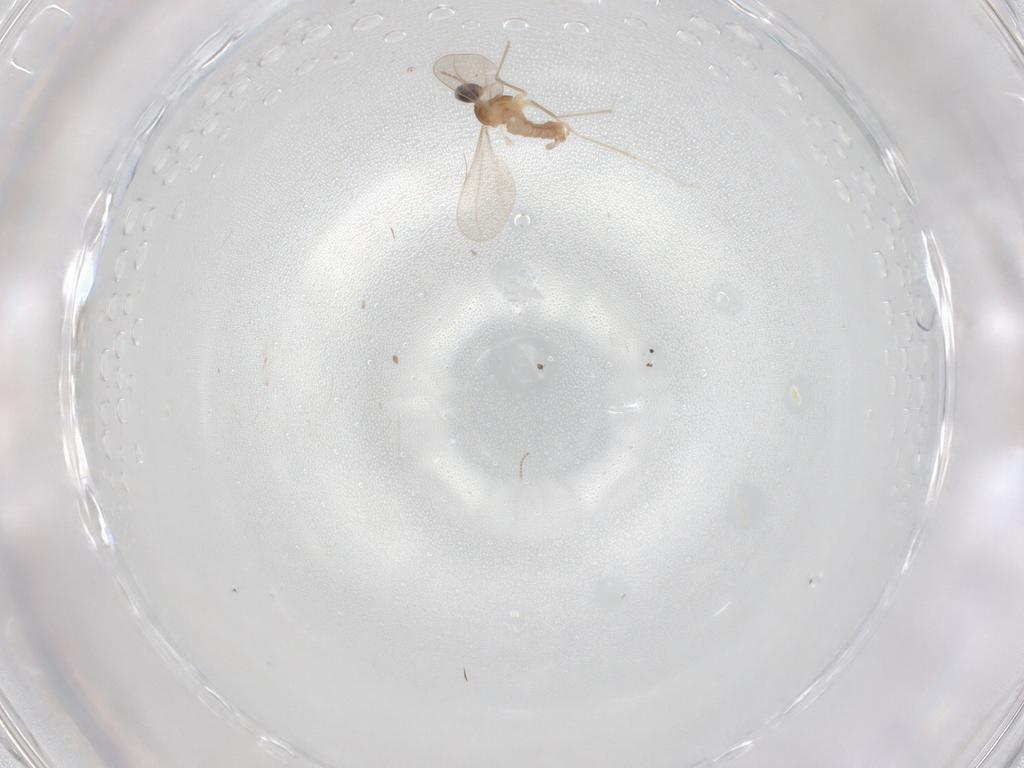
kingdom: Animalia
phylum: Arthropoda
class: Insecta
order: Diptera
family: Cecidomyiidae
